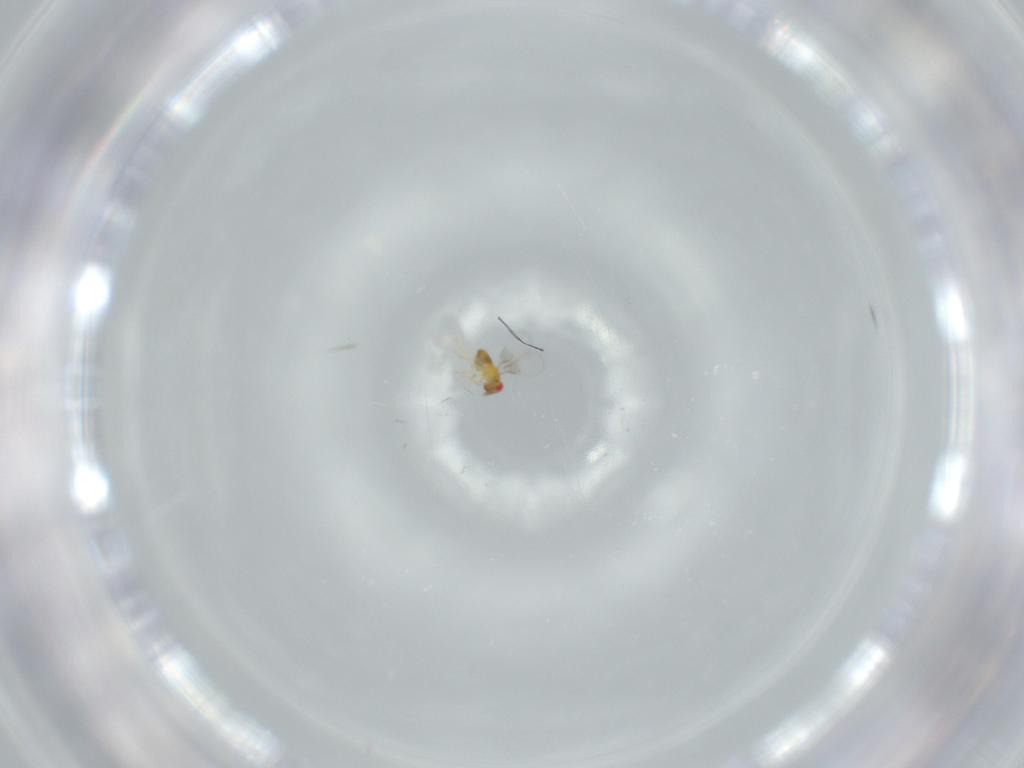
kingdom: Animalia
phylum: Arthropoda
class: Insecta
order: Hymenoptera
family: Trichogrammatidae
